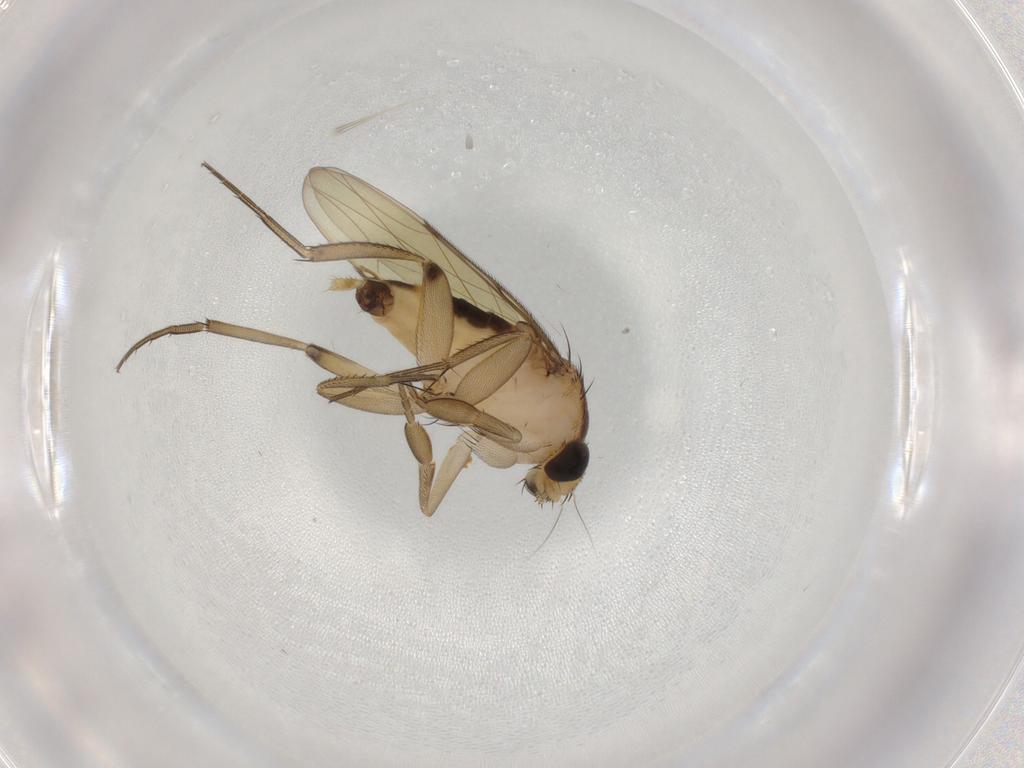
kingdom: Animalia
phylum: Arthropoda
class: Insecta
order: Diptera
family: Phoridae
